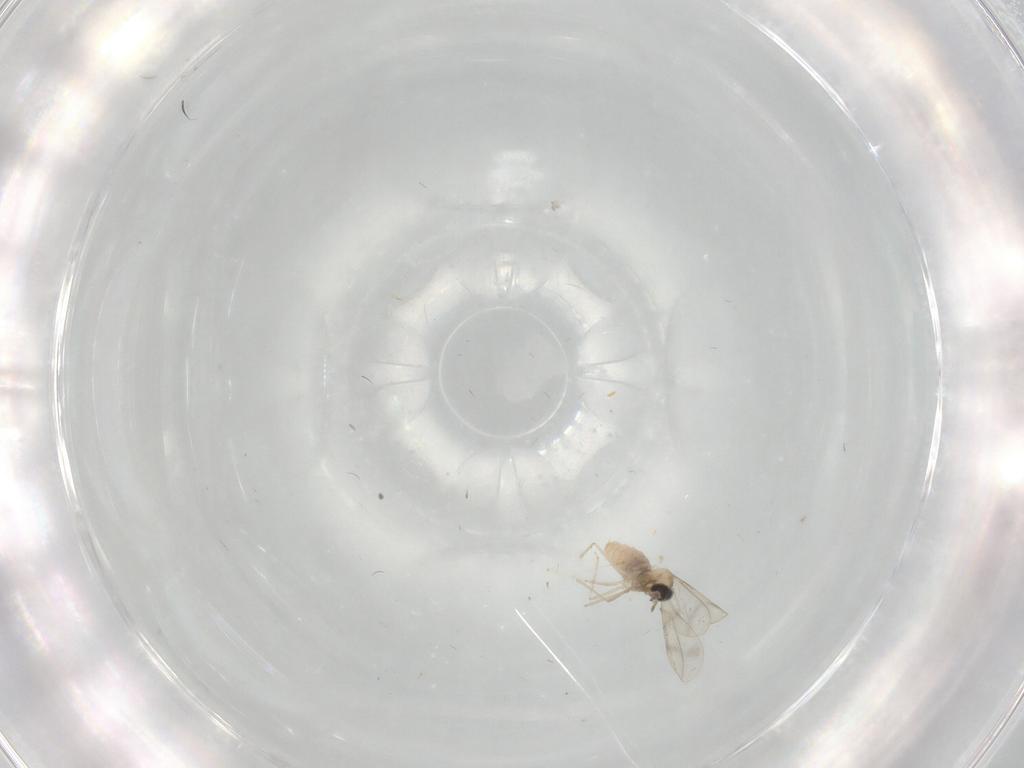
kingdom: Animalia
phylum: Arthropoda
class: Insecta
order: Diptera
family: Cecidomyiidae
